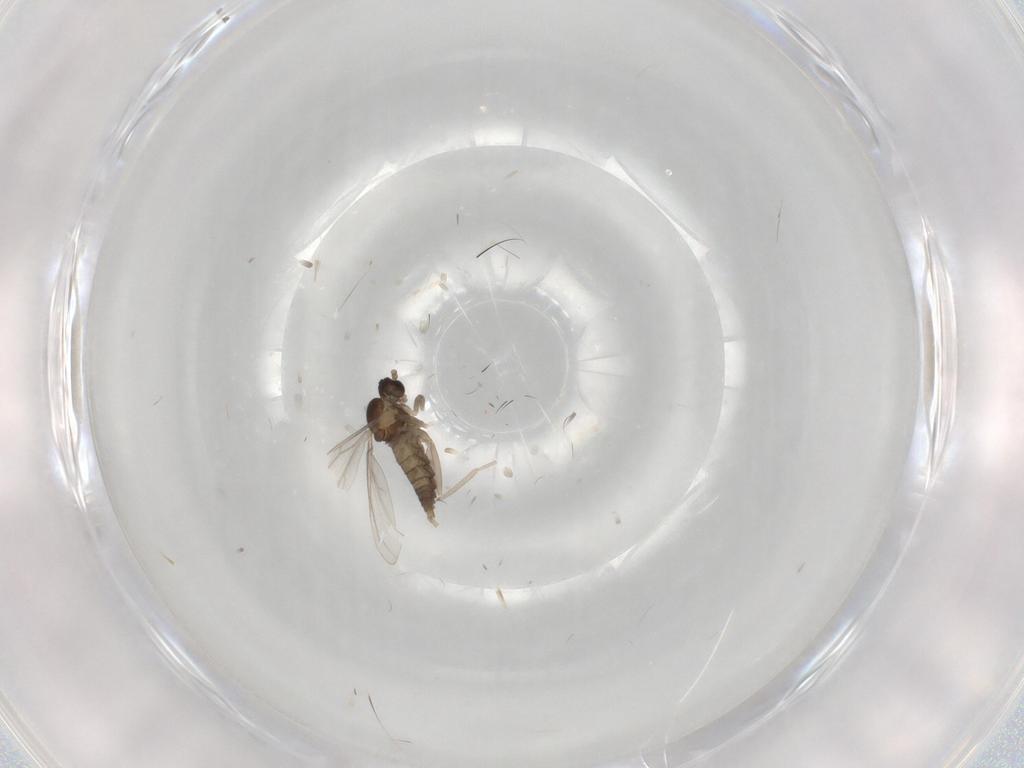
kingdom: Animalia
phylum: Arthropoda
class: Insecta
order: Diptera
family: Cecidomyiidae
